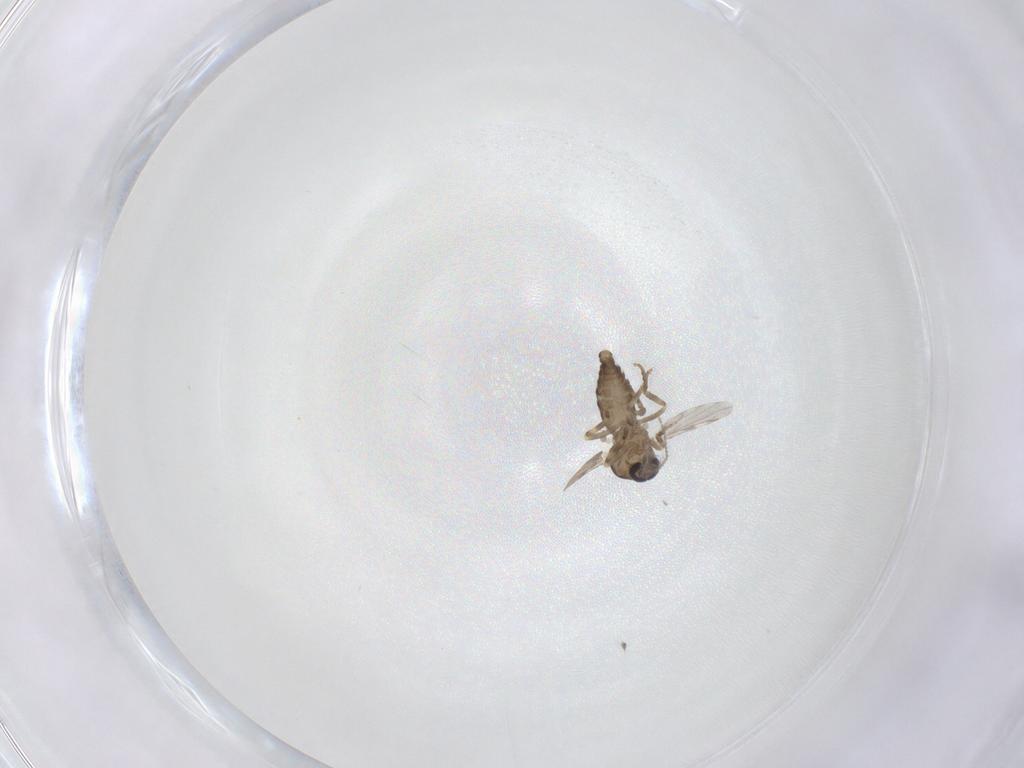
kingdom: Animalia
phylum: Arthropoda
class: Insecta
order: Diptera
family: Ceratopogonidae
